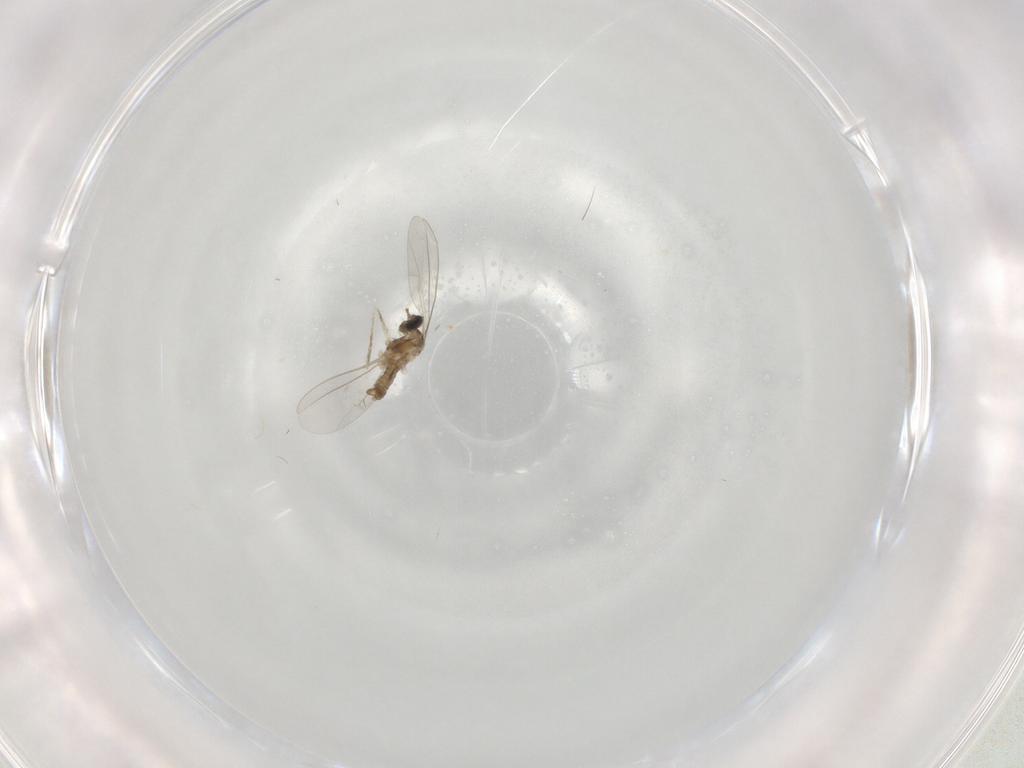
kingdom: Animalia
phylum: Arthropoda
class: Insecta
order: Diptera
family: Cecidomyiidae
